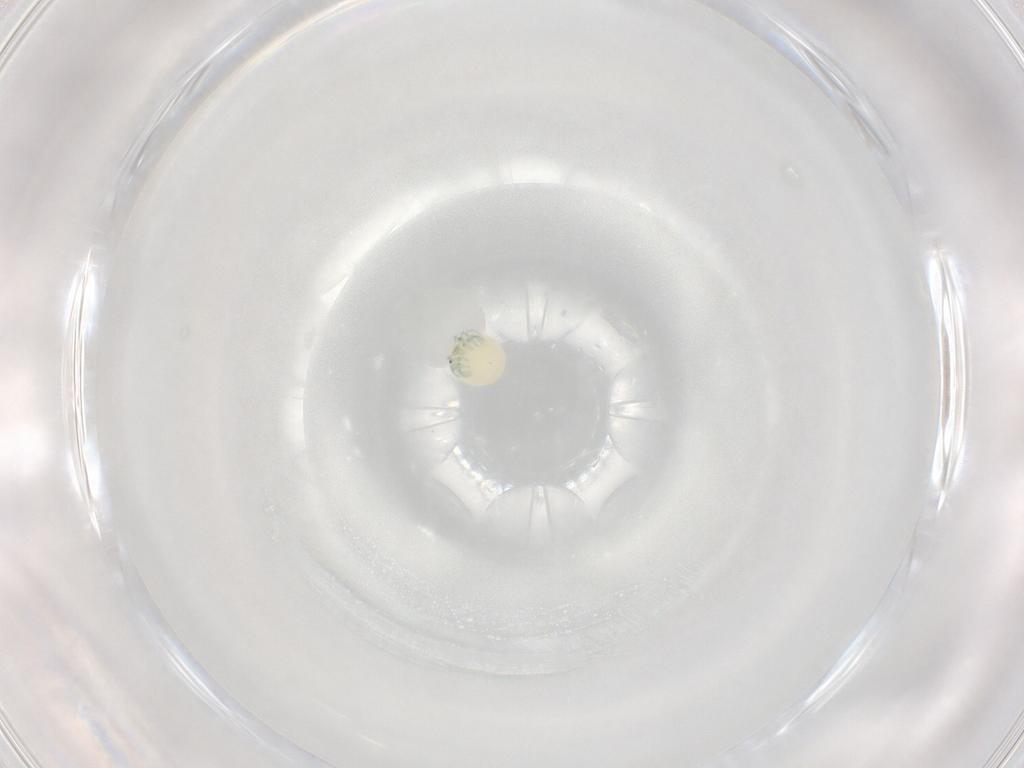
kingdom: Animalia
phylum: Arthropoda
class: Arachnida
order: Trombidiformes
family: Arrenuridae
